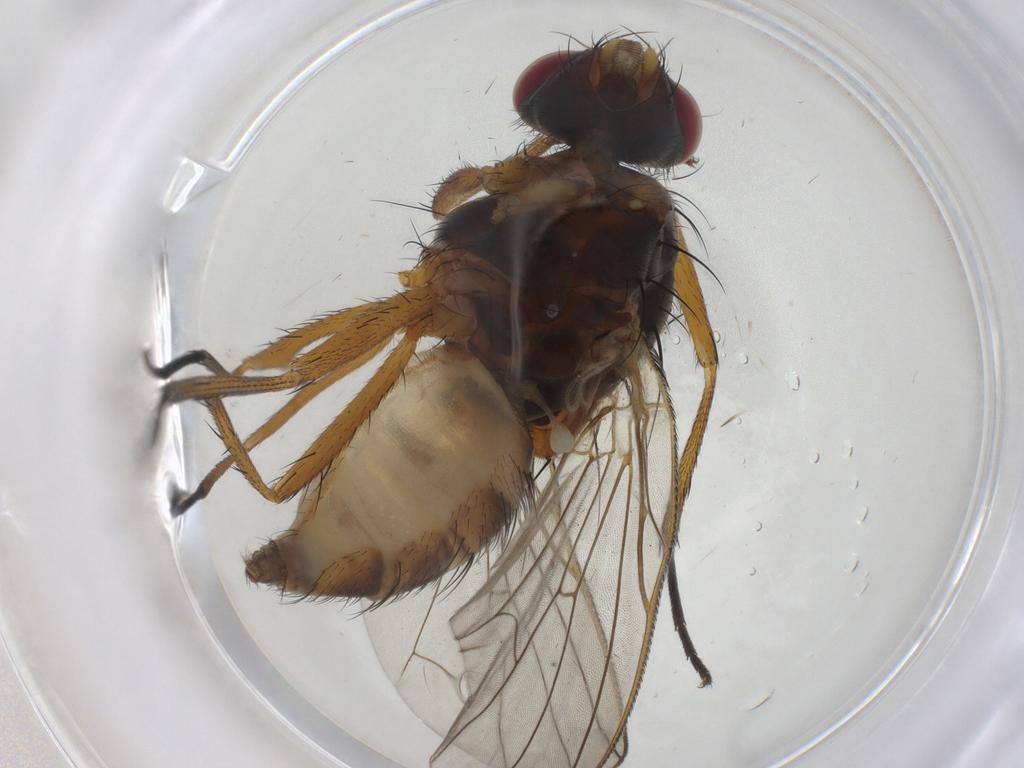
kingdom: Animalia
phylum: Arthropoda
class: Insecta
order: Diptera
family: Anthomyiidae
